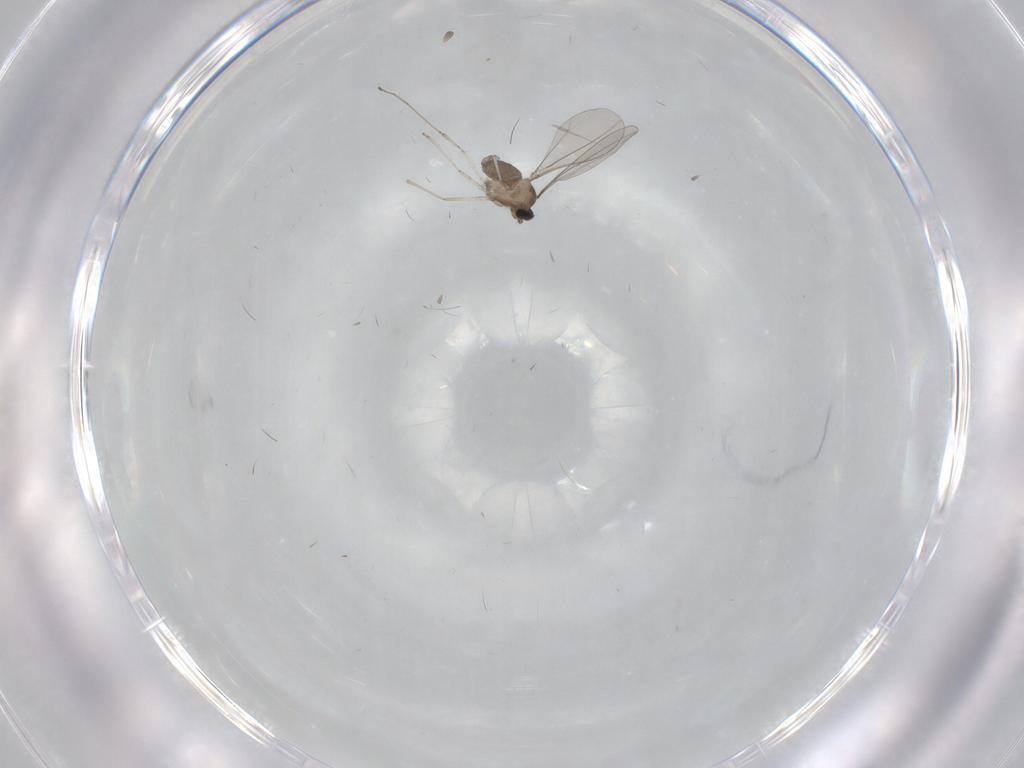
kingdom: Animalia
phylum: Arthropoda
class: Insecta
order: Diptera
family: Cecidomyiidae
